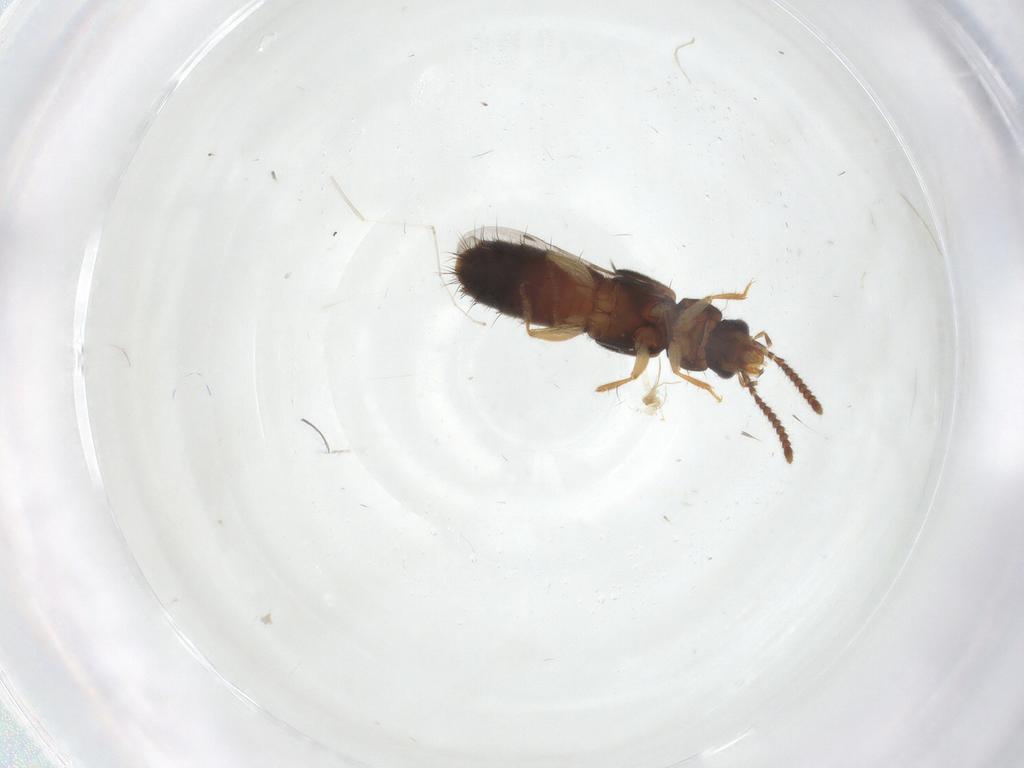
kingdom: Animalia
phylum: Arthropoda
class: Insecta
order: Coleoptera
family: Staphylinidae
